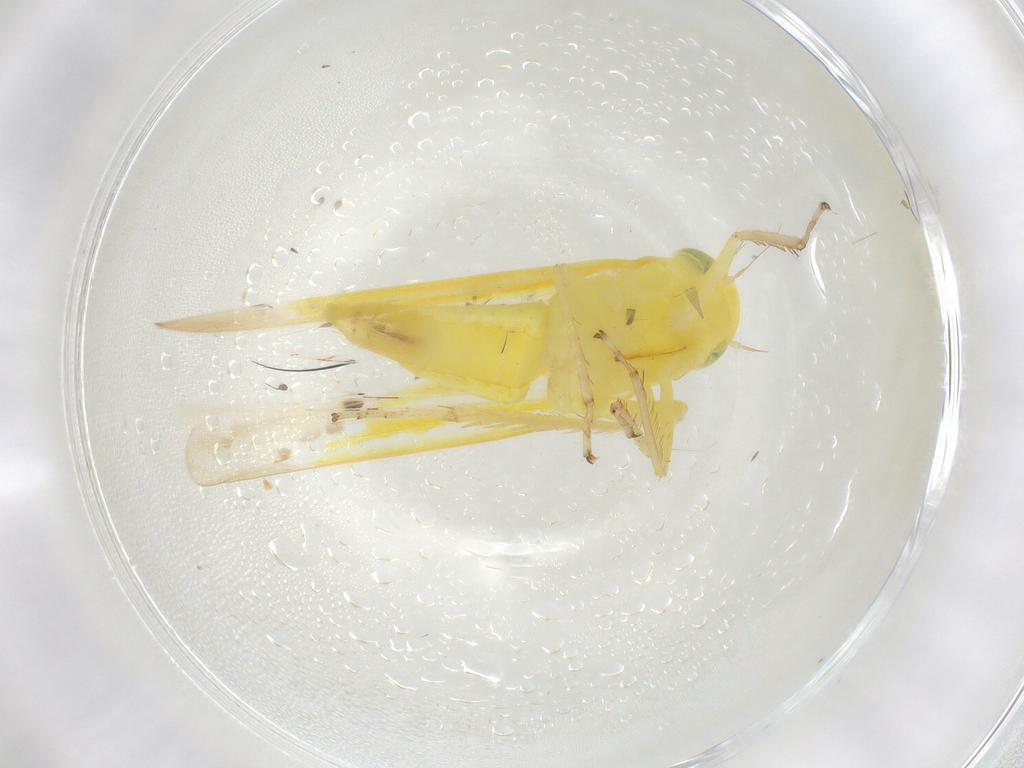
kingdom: Animalia
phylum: Arthropoda
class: Insecta
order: Hemiptera
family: Cicadellidae
